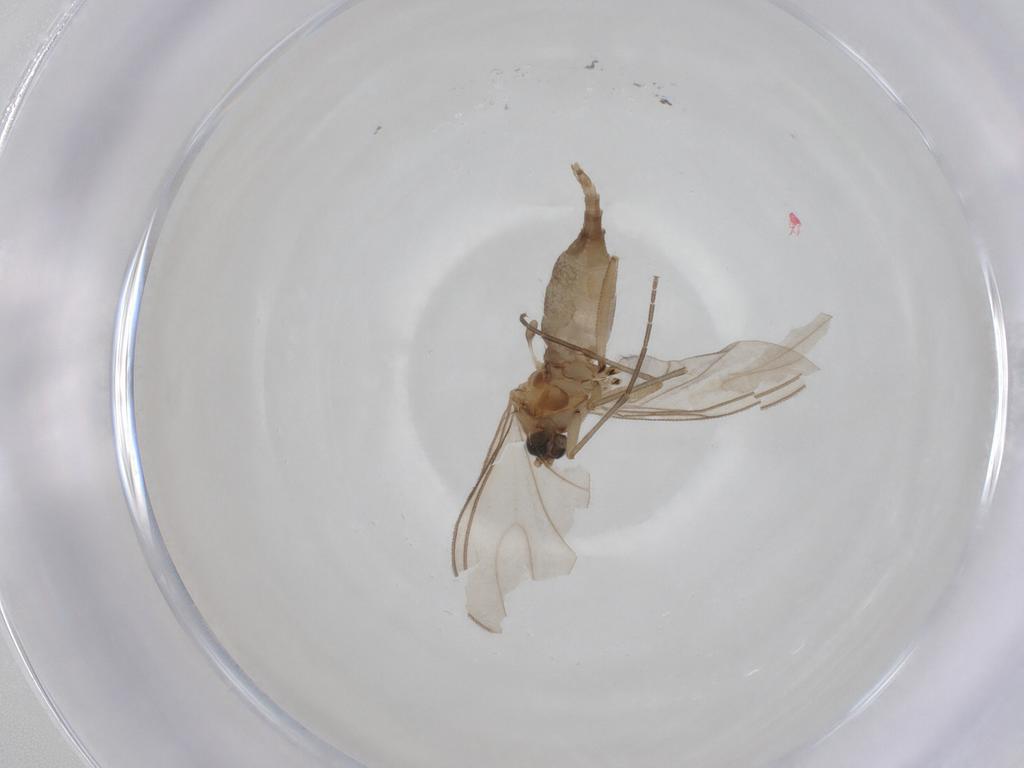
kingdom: Animalia
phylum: Arthropoda
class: Insecta
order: Diptera
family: Sciaridae
